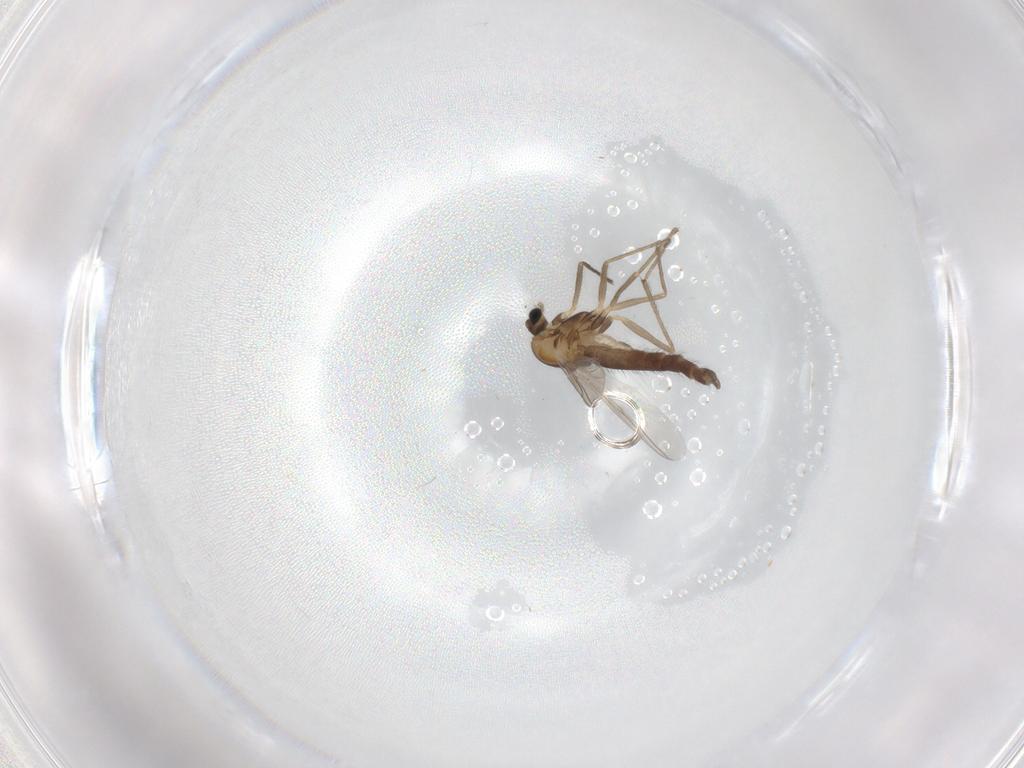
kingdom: Animalia
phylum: Arthropoda
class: Insecta
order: Diptera
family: Chironomidae
